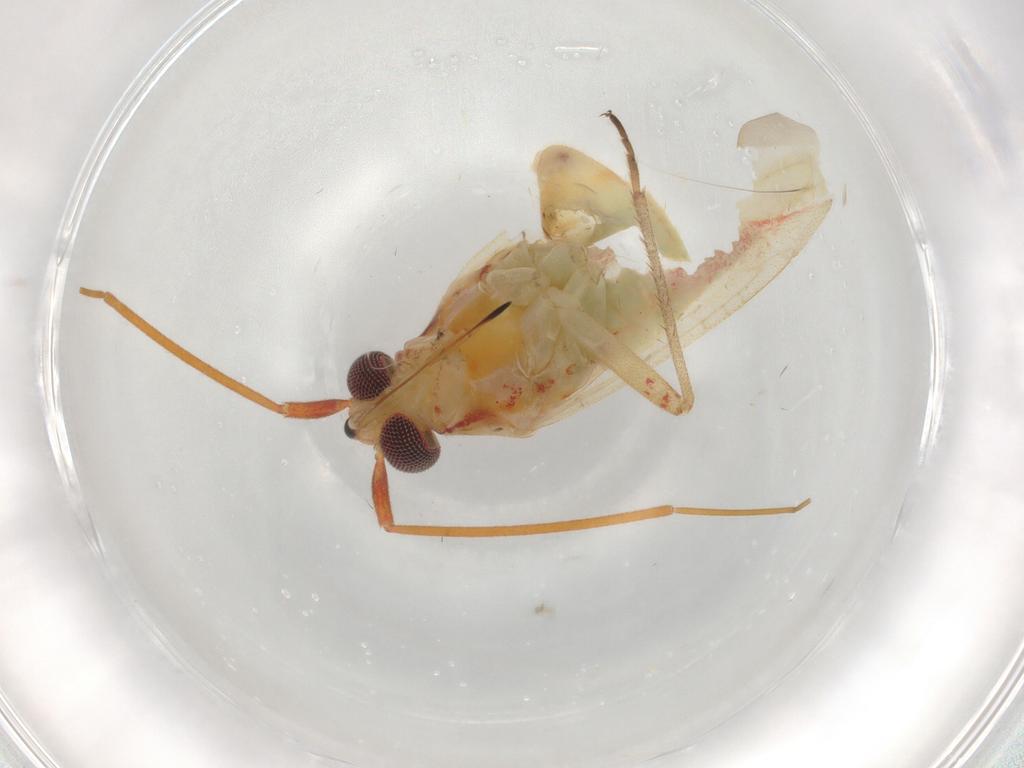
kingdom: Animalia
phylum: Arthropoda
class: Insecta
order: Hemiptera
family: Miridae
